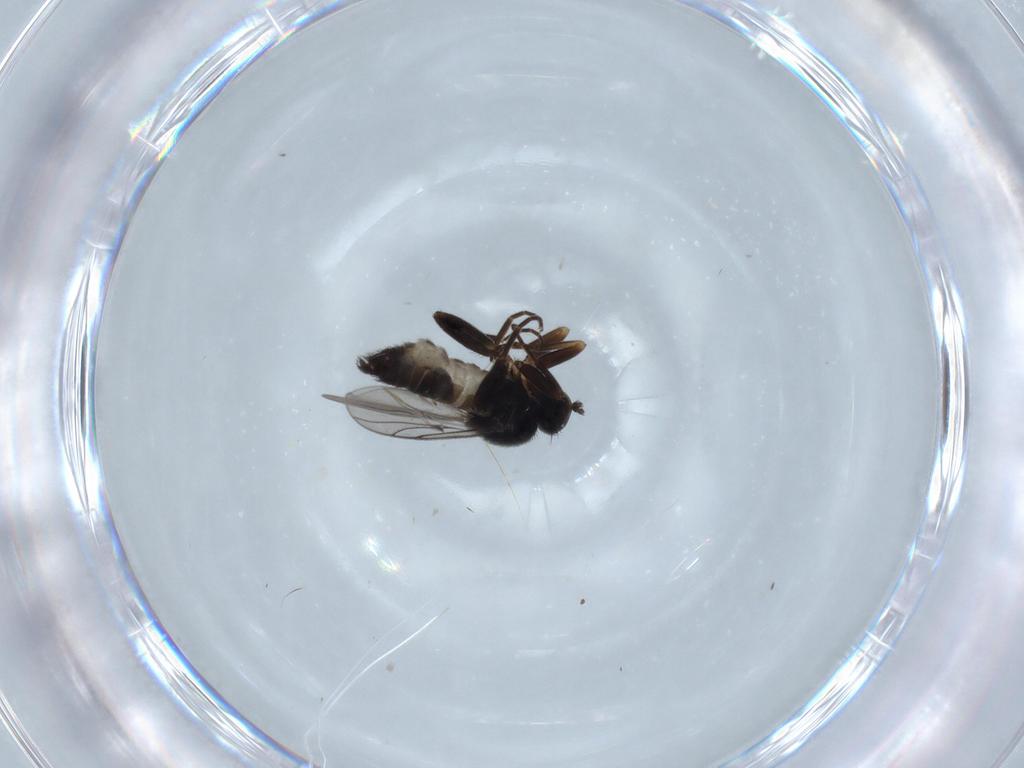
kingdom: Animalia
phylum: Arthropoda
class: Insecta
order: Diptera
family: Hybotidae
